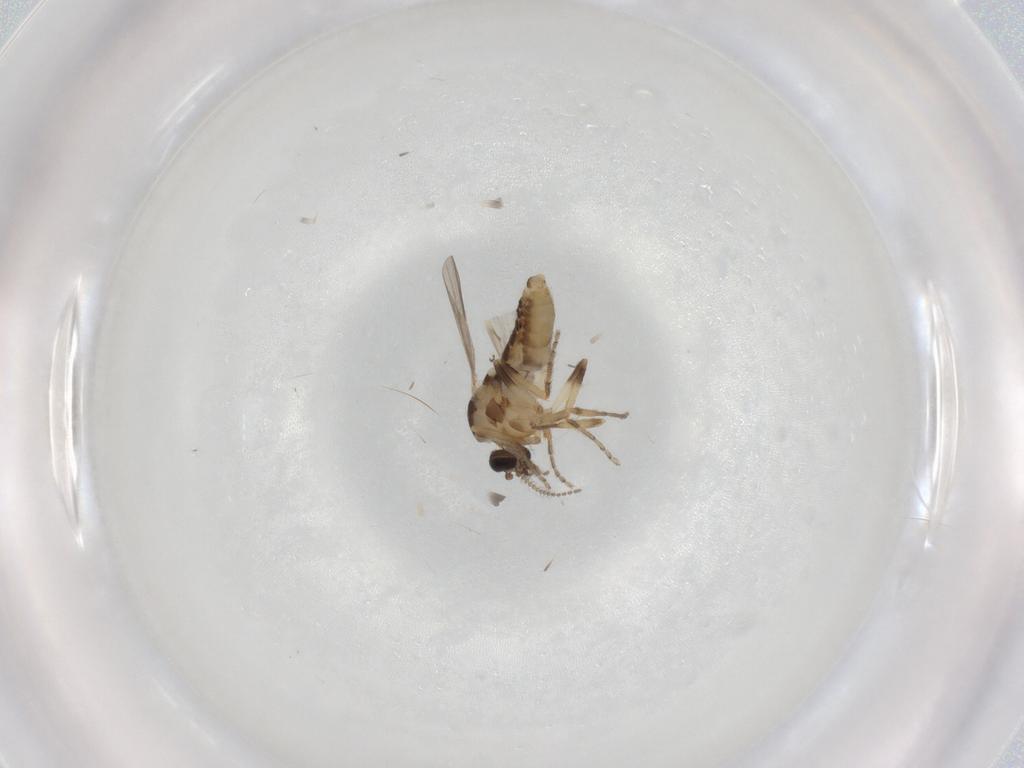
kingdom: Animalia
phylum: Arthropoda
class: Insecta
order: Diptera
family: Ceratopogonidae
